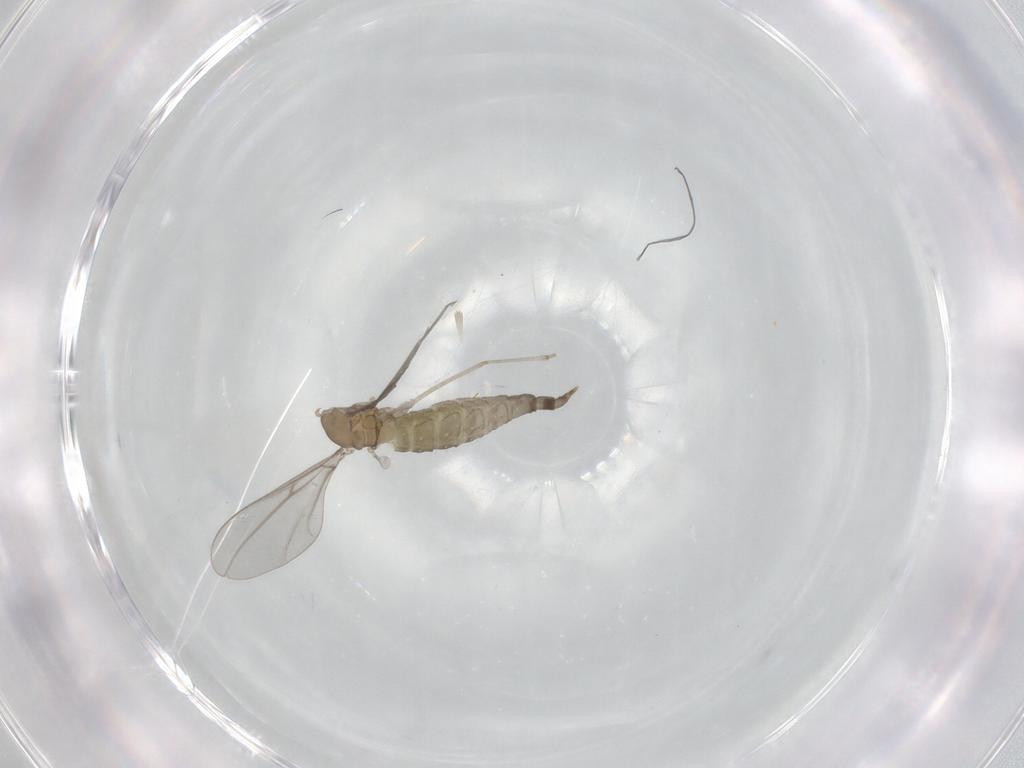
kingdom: Animalia
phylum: Arthropoda
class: Insecta
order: Diptera
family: Cecidomyiidae
